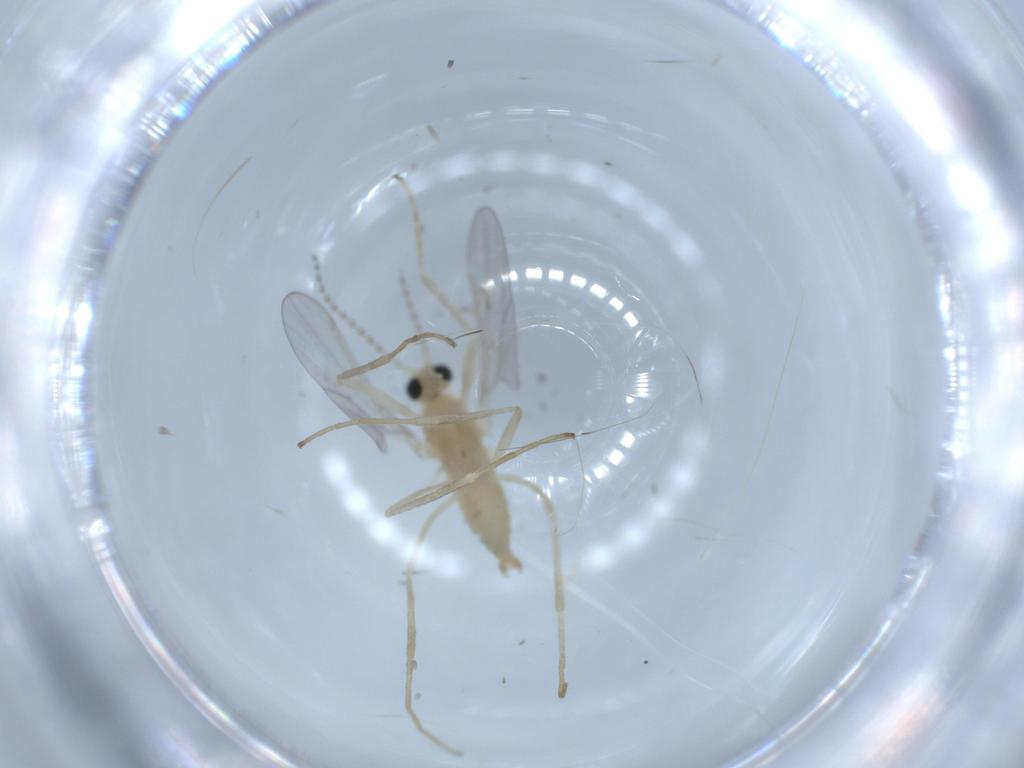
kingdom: Animalia
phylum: Arthropoda
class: Insecta
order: Diptera
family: Cecidomyiidae
